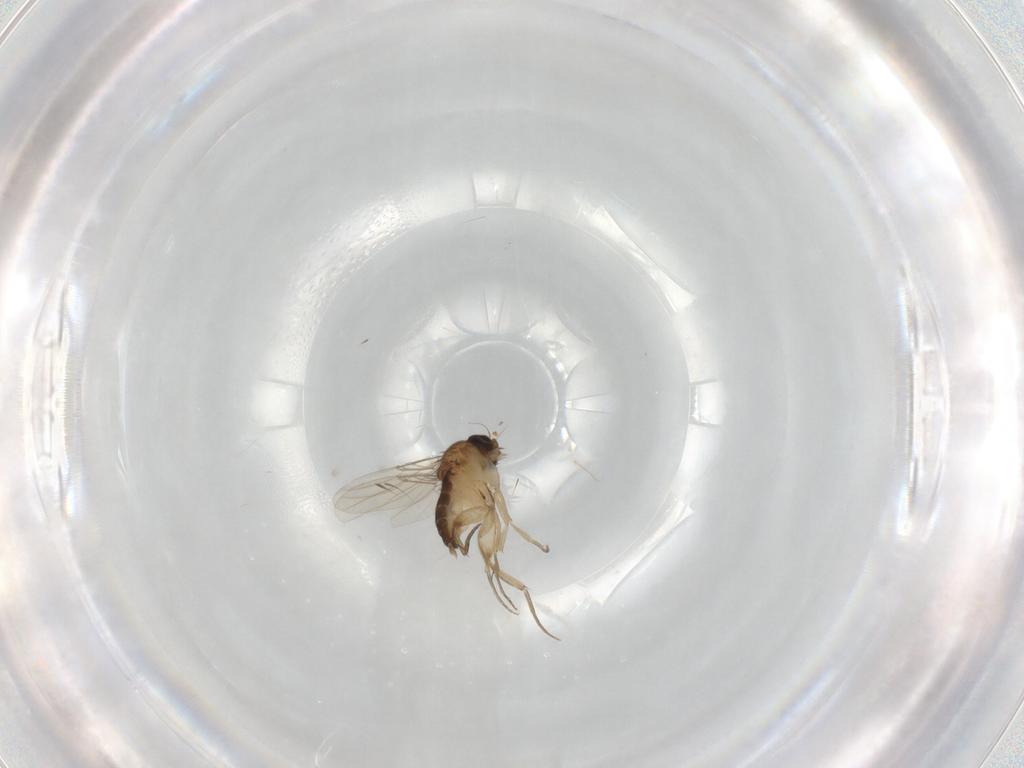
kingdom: Animalia
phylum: Arthropoda
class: Insecta
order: Diptera
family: Phoridae
